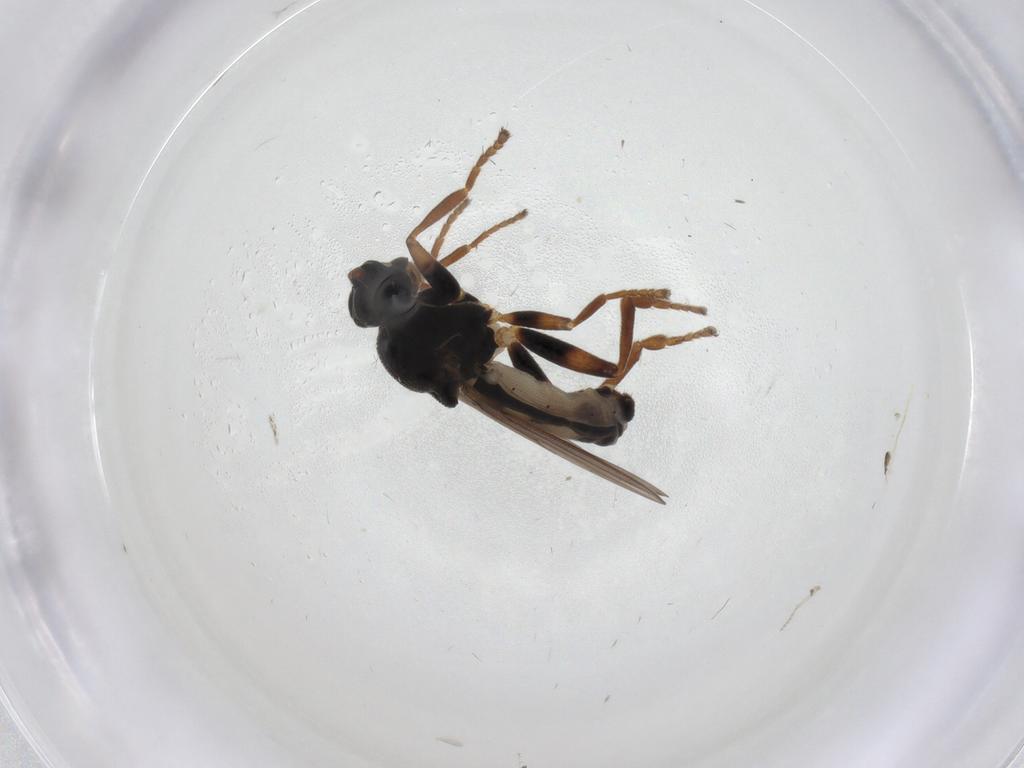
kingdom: Animalia
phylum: Arthropoda
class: Insecta
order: Diptera
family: Sphaeroceridae
